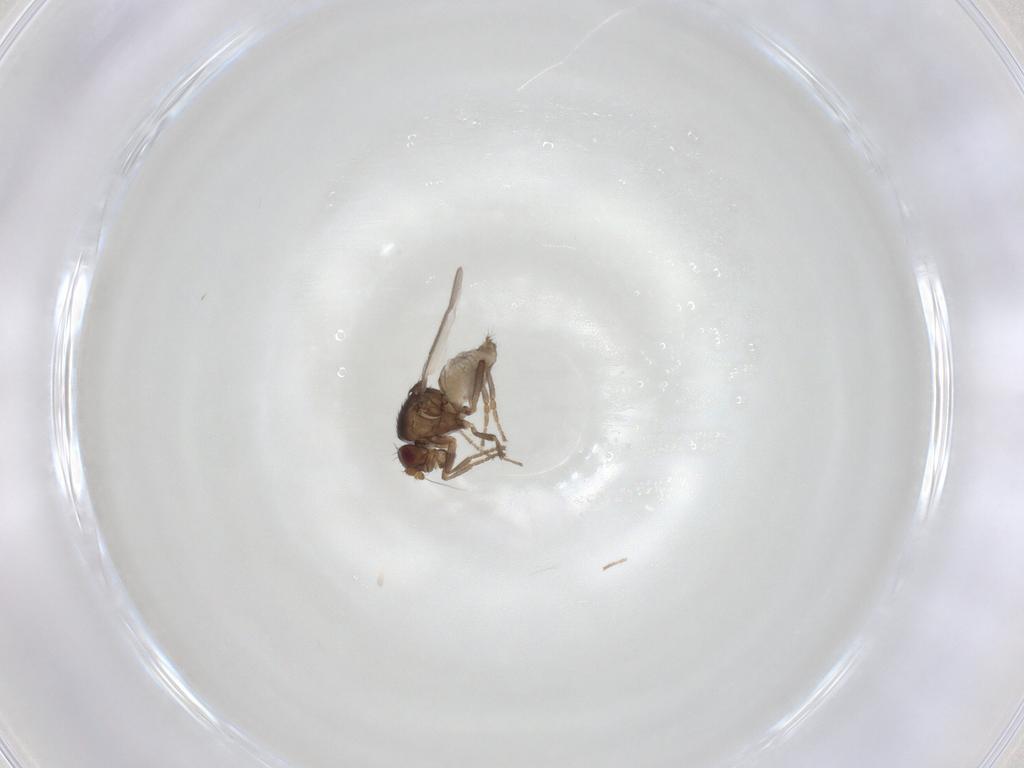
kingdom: Animalia
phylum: Arthropoda
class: Insecta
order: Diptera
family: Sphaeroceridae
